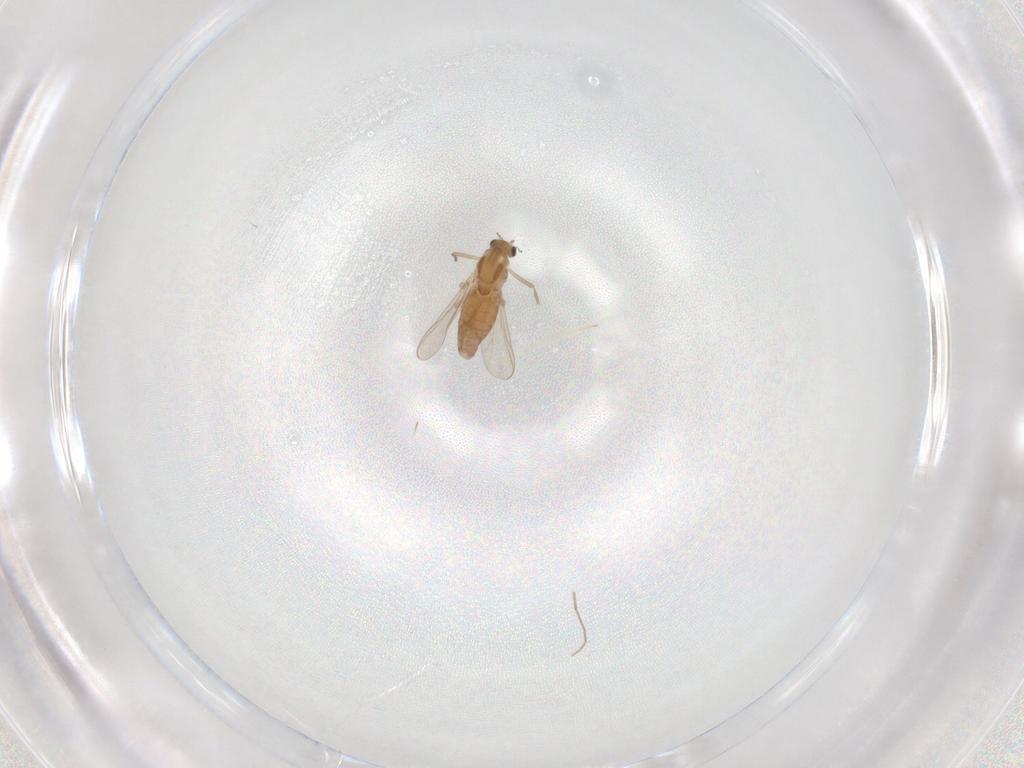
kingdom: Animalia
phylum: Arthropoda
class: Insecta
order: Diptera
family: Chironomidae
